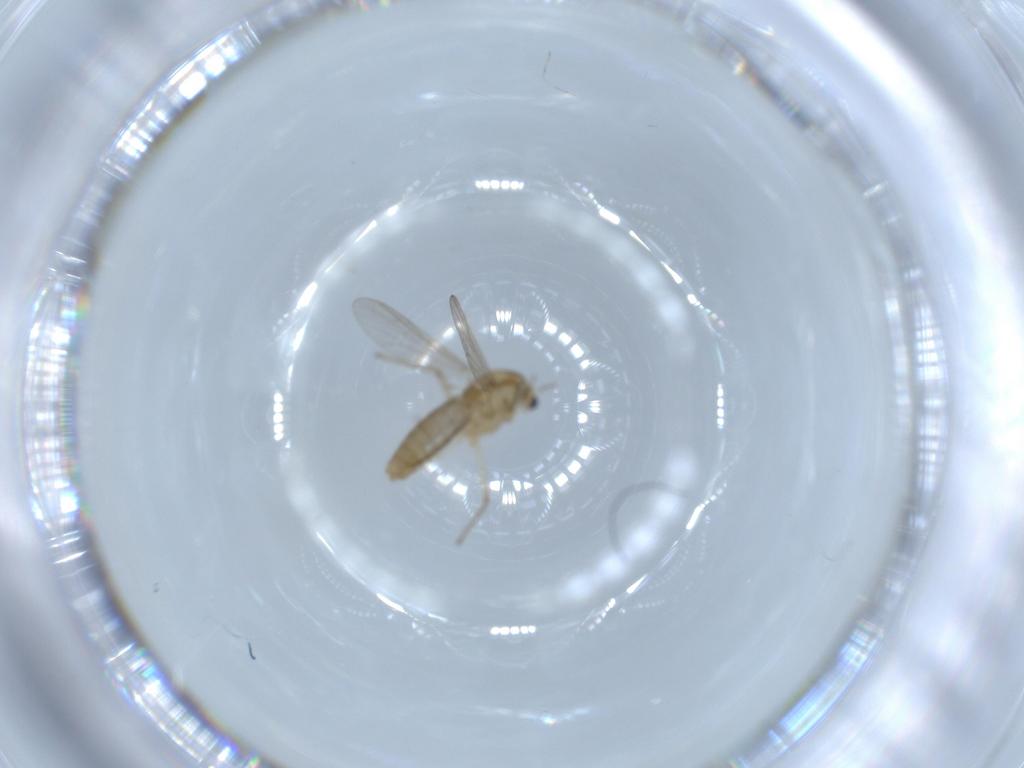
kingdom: Animalia
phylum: Arthropoda
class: Insecta
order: Diptera
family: Chironomidae
